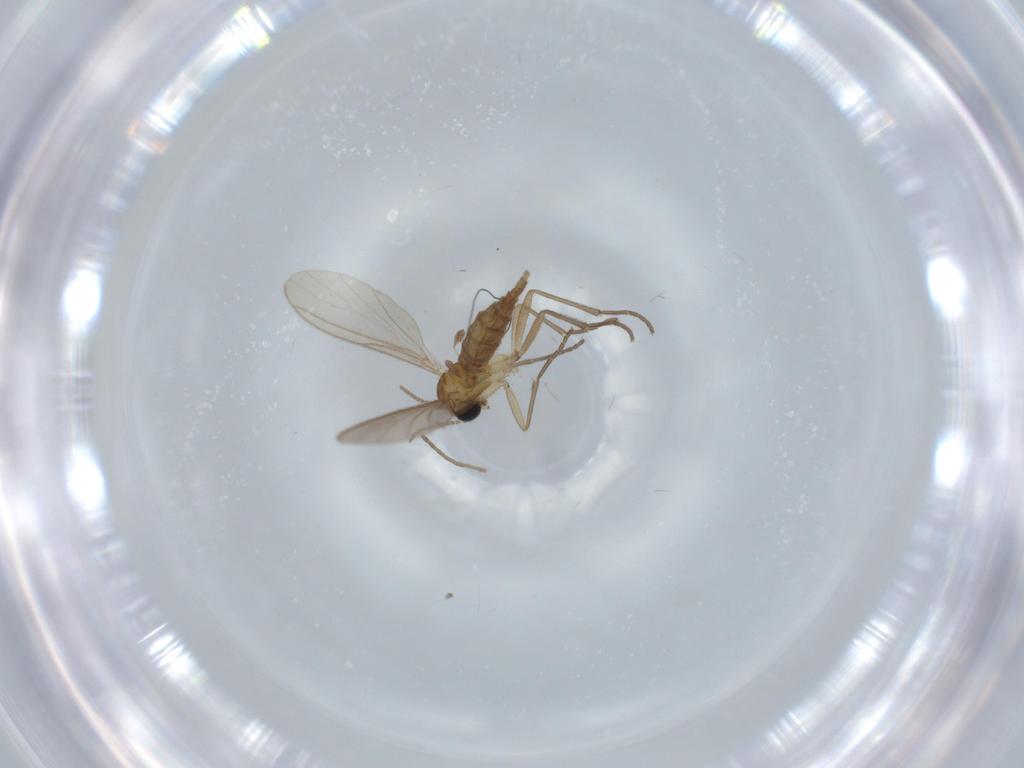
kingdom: Animalia
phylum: Arthropoda
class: Insecta
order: Diptera
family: Sciaridae
